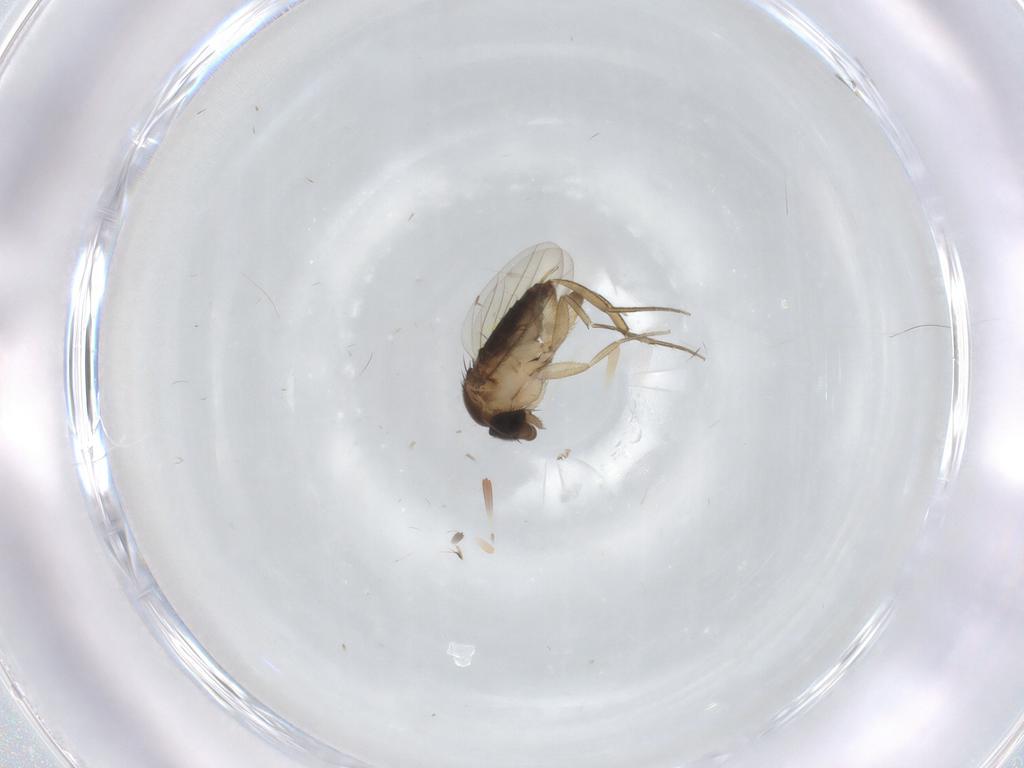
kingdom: Animalia
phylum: Arthropoda
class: Insecta
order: Diptera
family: Phoridae
